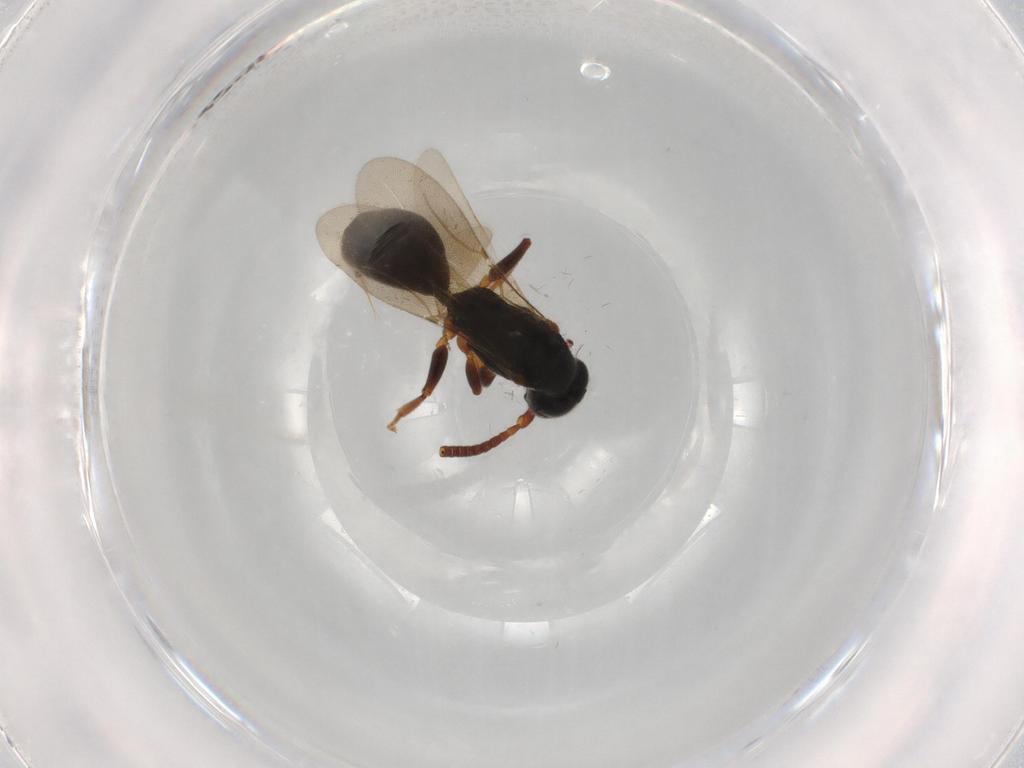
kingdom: Animalia
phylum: Arthropoda
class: Insecta
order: Hymenoptera
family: Bethylidae
